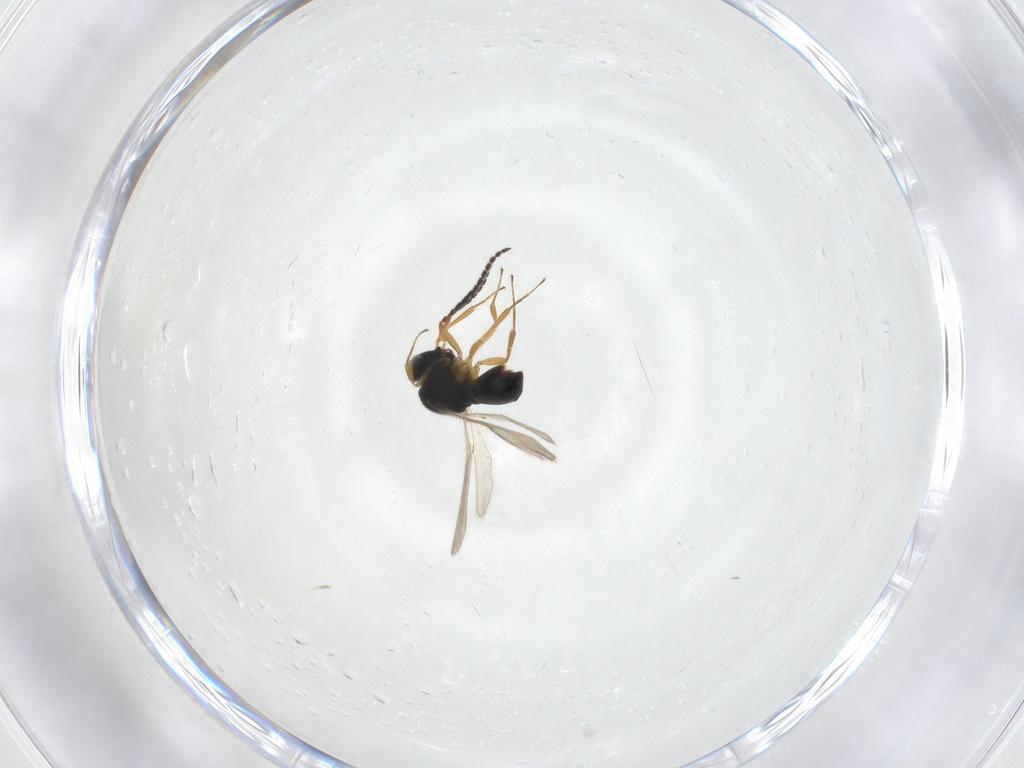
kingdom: Animalia
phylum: Arthropoda
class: Insecta
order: Hymenoptera
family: Scelionidae
